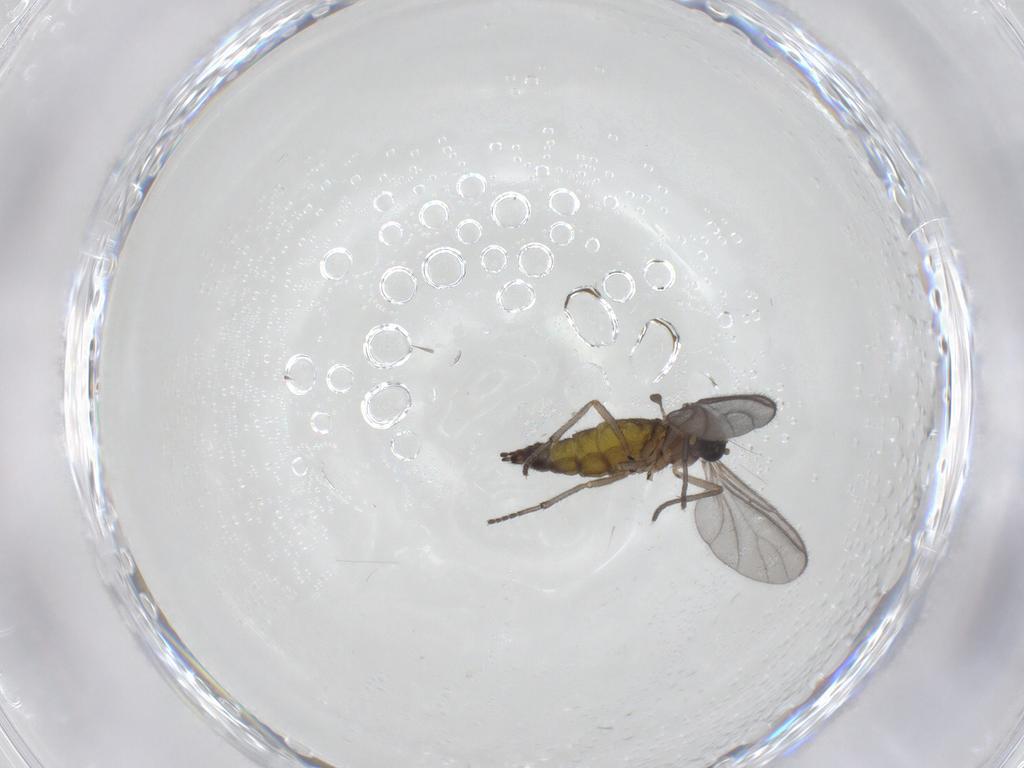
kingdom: Animalia
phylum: Arthropoda
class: Insecta
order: Diptera
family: Sciaridae
